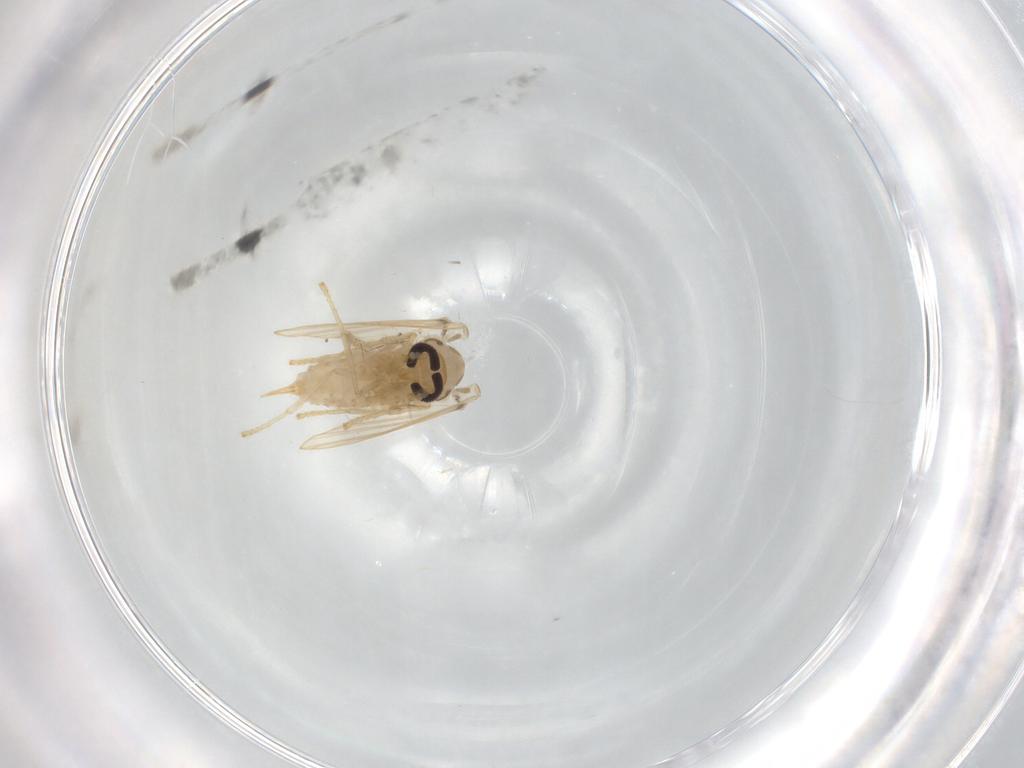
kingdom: Animalia
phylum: Arthropoda
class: Insecta
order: Diptera
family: Psychodidae
